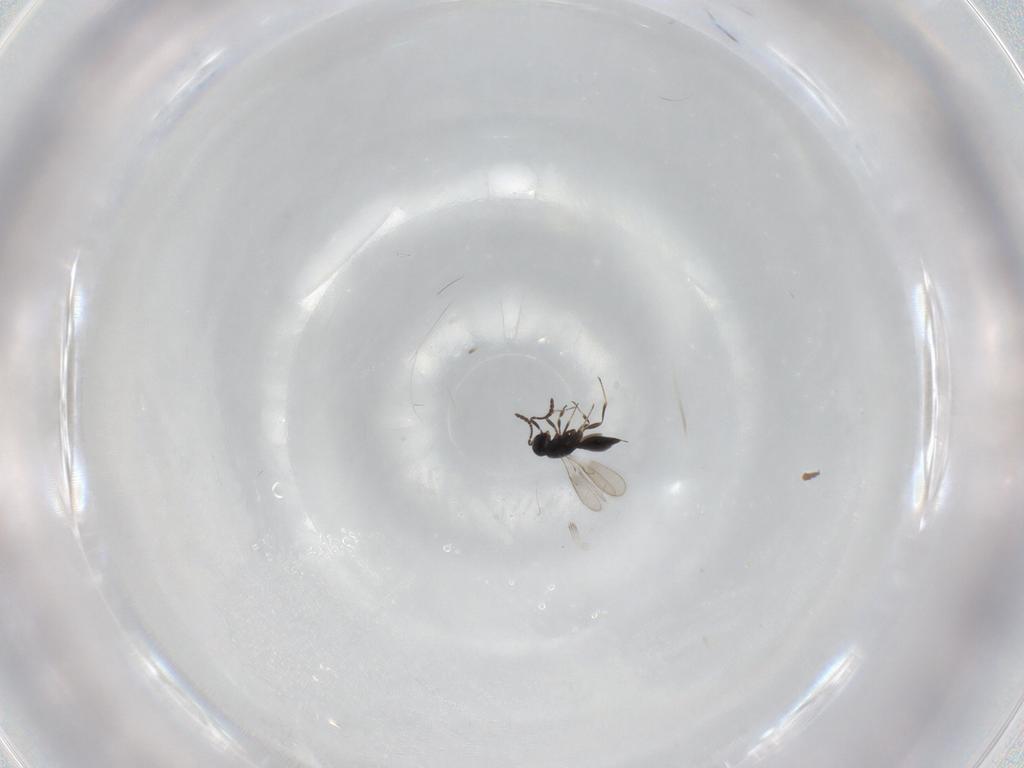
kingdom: Animalia
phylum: Arthropoda
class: Insecta
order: Hymenoptera
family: Scelionidae
